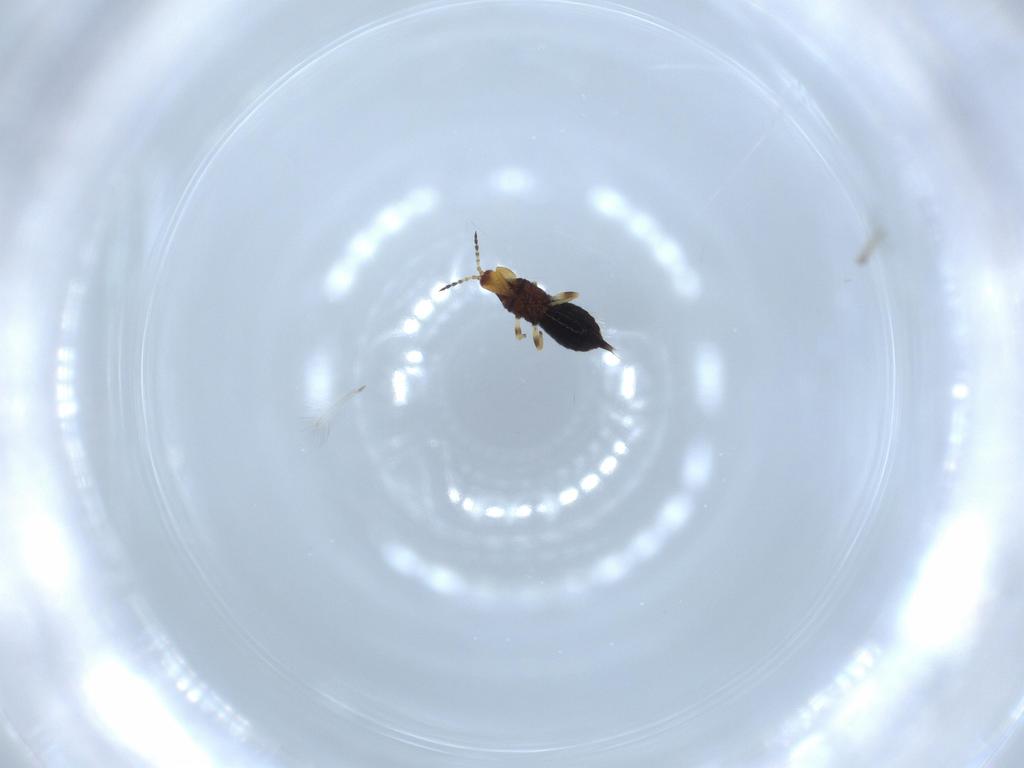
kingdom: Animalia
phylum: Arthropoda
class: Insecta
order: Thysanoptera
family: Phlaeothripidae
